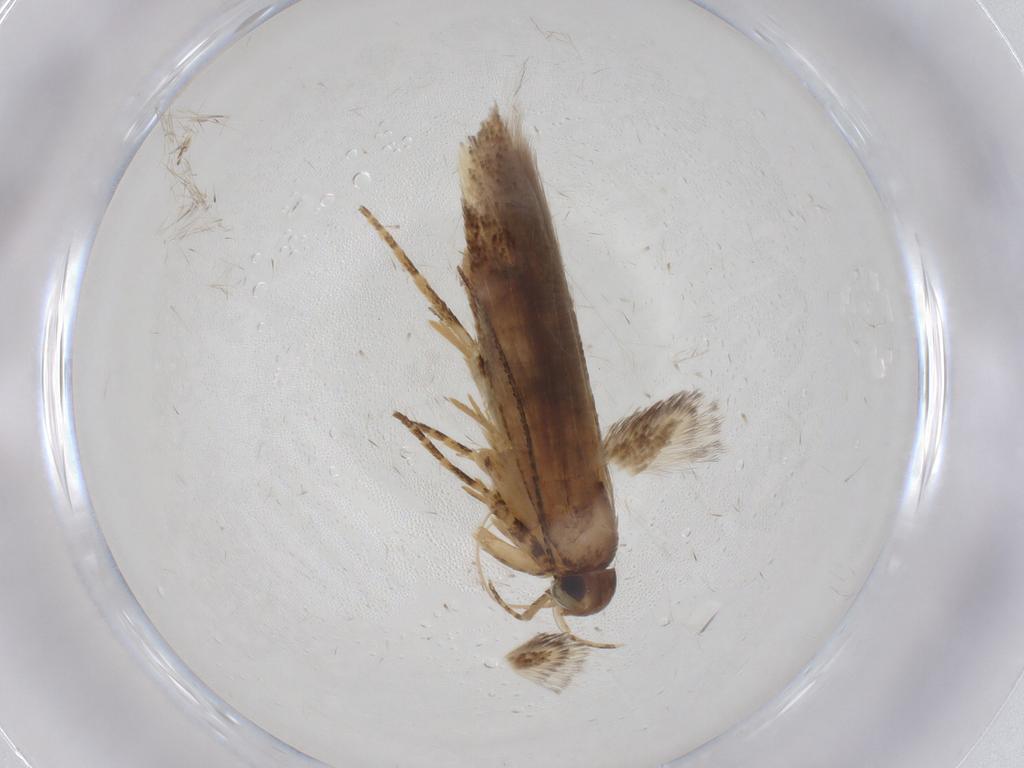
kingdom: Animalia
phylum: Arthropoda
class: Insecta
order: Lepidoptera
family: Gelechiidae
